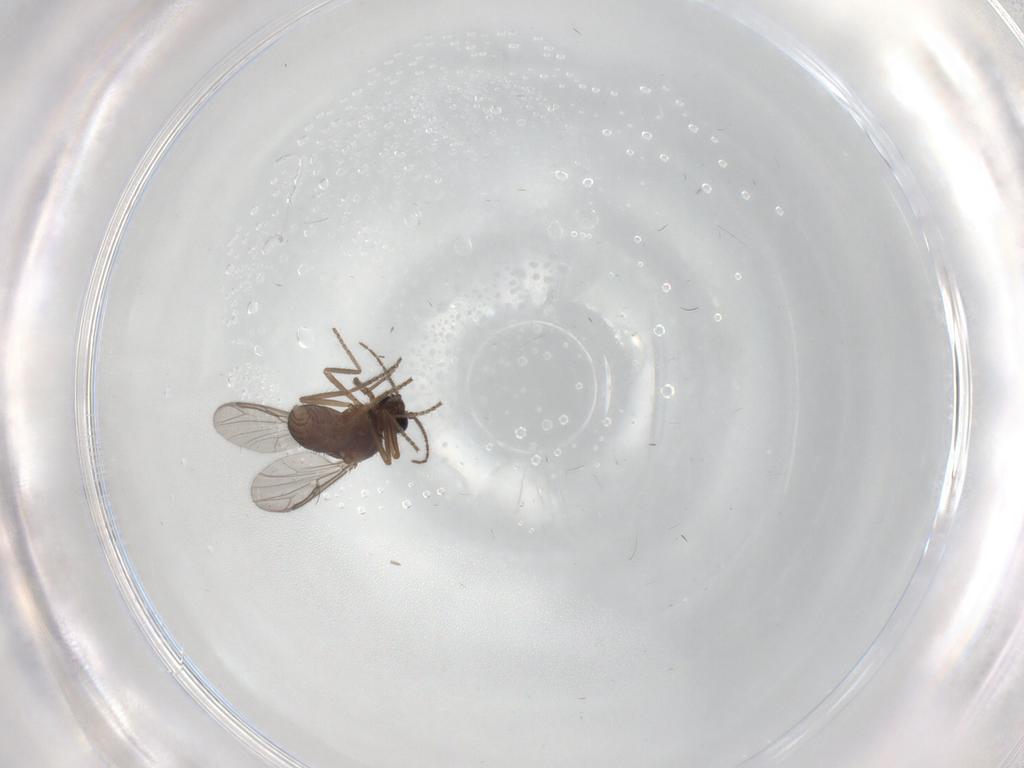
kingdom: Animalia
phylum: Arthropoda
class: Insecta
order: Diptera
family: Ceratopogonidae
